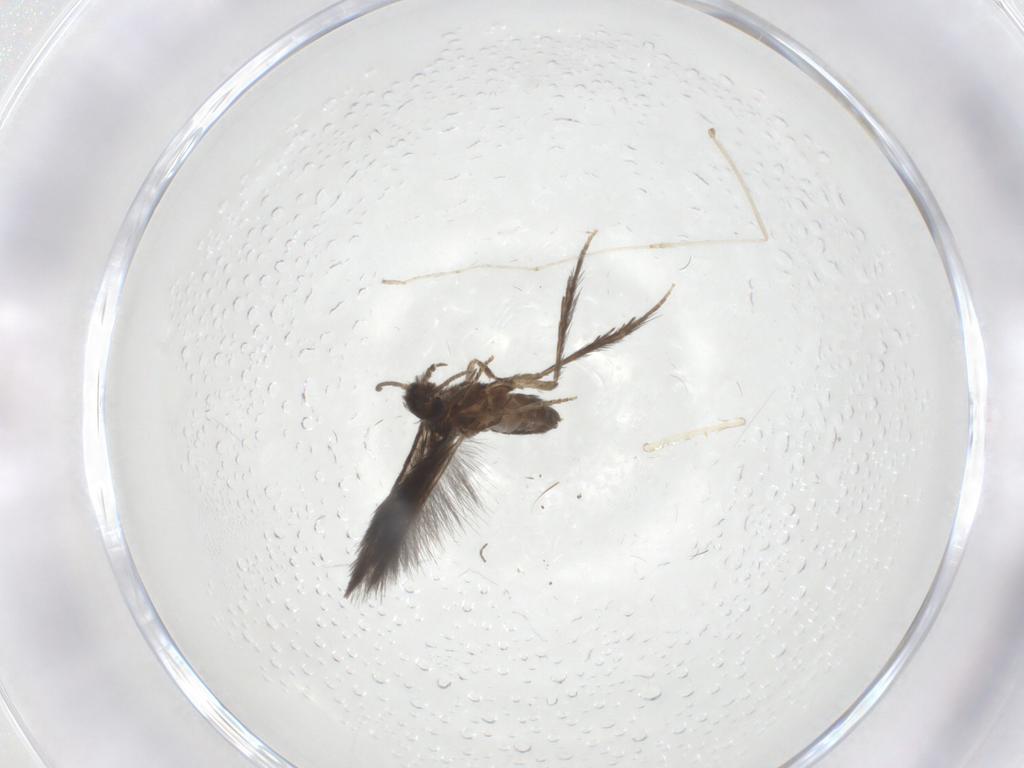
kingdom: Animalia
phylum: Arthropoda
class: Insecta
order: Trichoptera
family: Hydroptilidae
